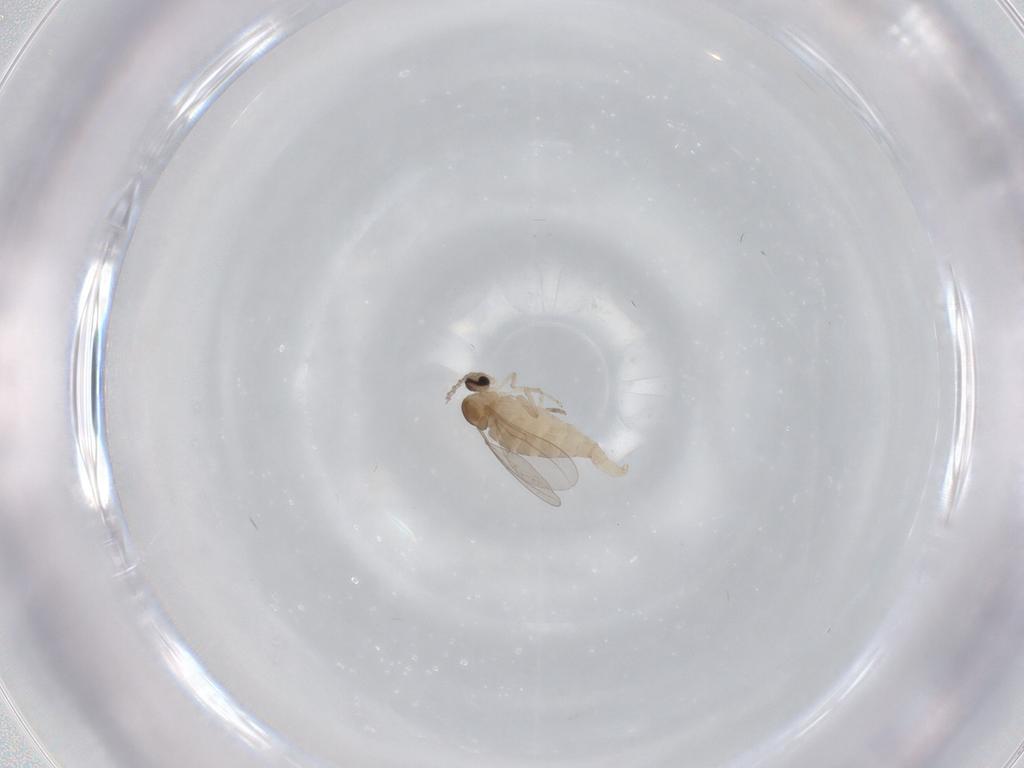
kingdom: Animalia
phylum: Arthropoda
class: Insecta
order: Diptera
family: Cecidomyiidae
